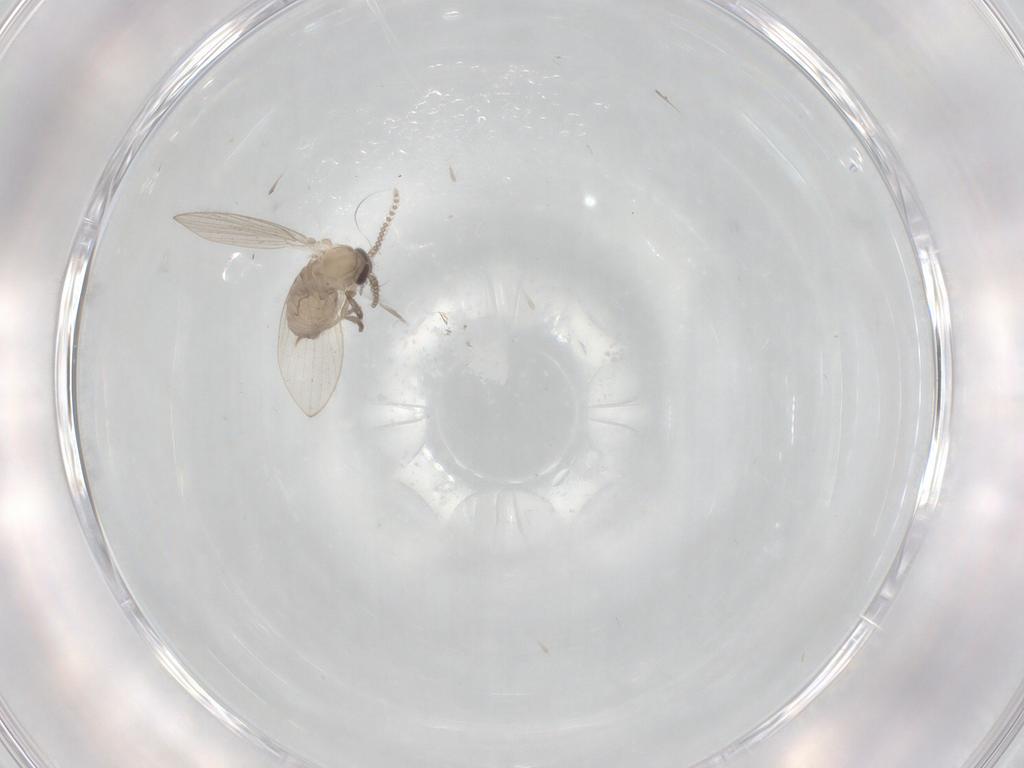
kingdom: Animalia
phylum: Arthropoda
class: Insecta
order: Diptera
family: Psychodidae
